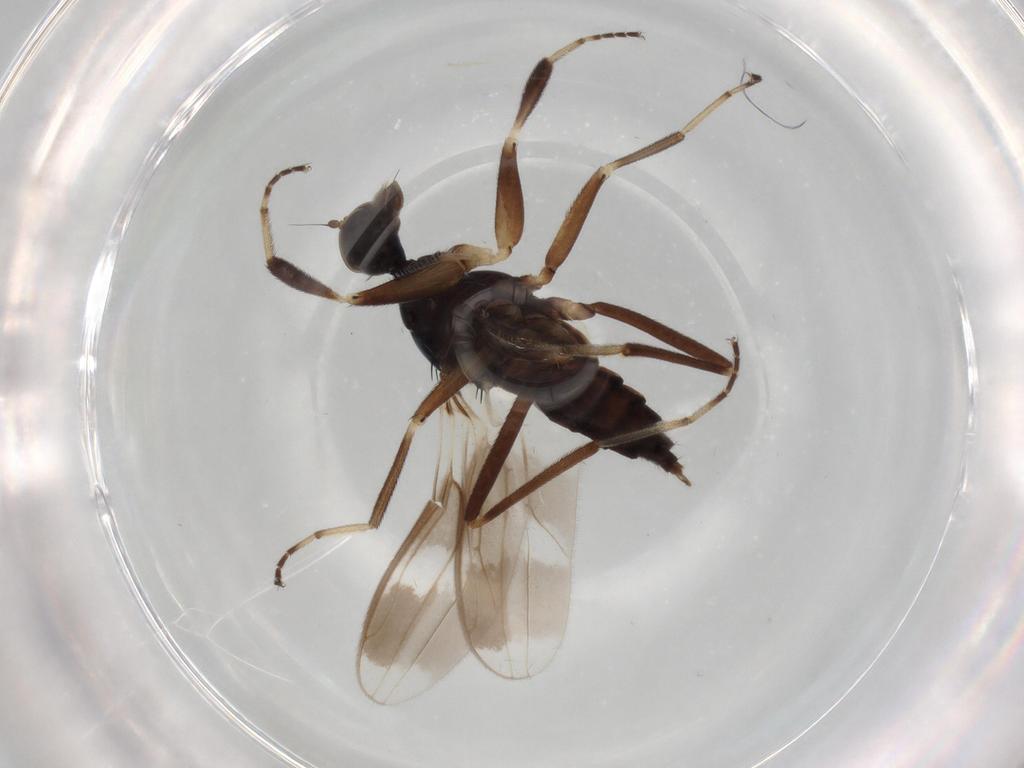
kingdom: Animalia
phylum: Arthropoda
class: Insecta
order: Diptera
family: Hybotidae
